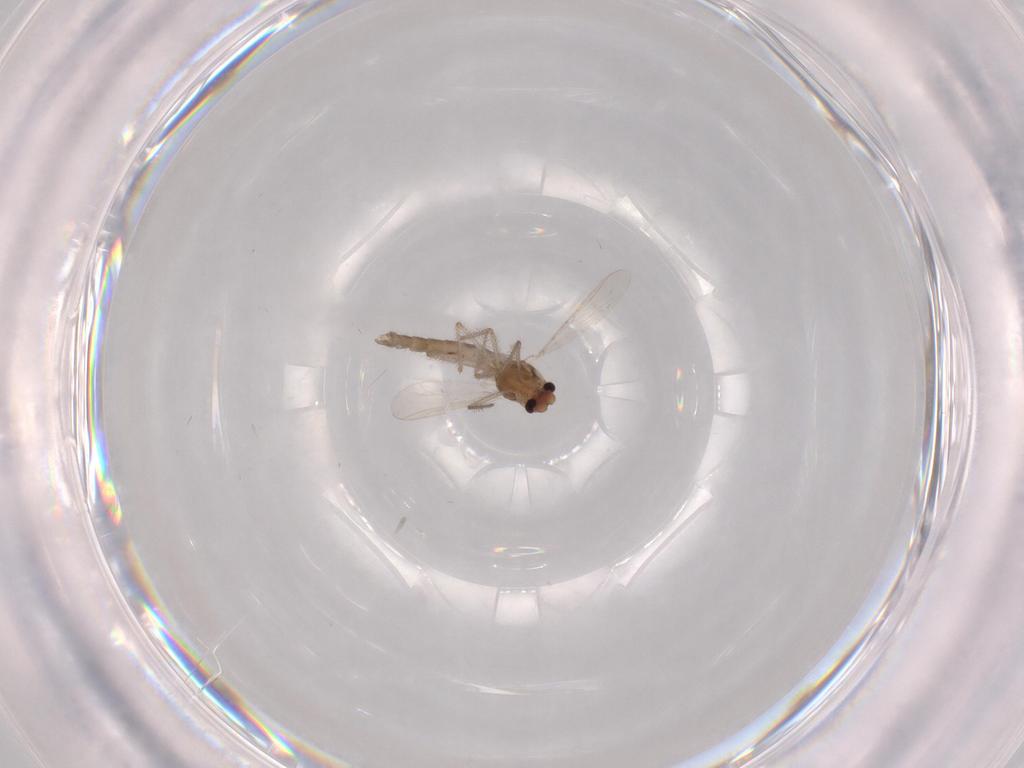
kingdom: Animalia
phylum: Arthropoda
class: Insecta
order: Diptera
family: Chironomidae
